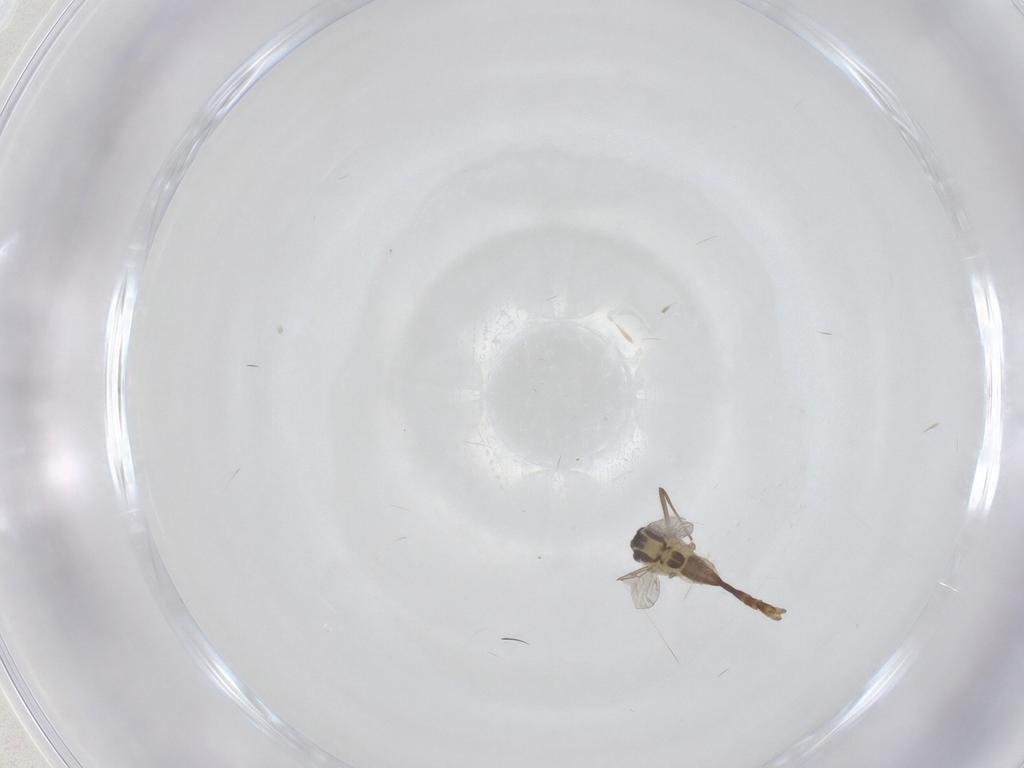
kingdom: Animalia
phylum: Arthropoda
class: Insecta
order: Diptera
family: Chironomidae
